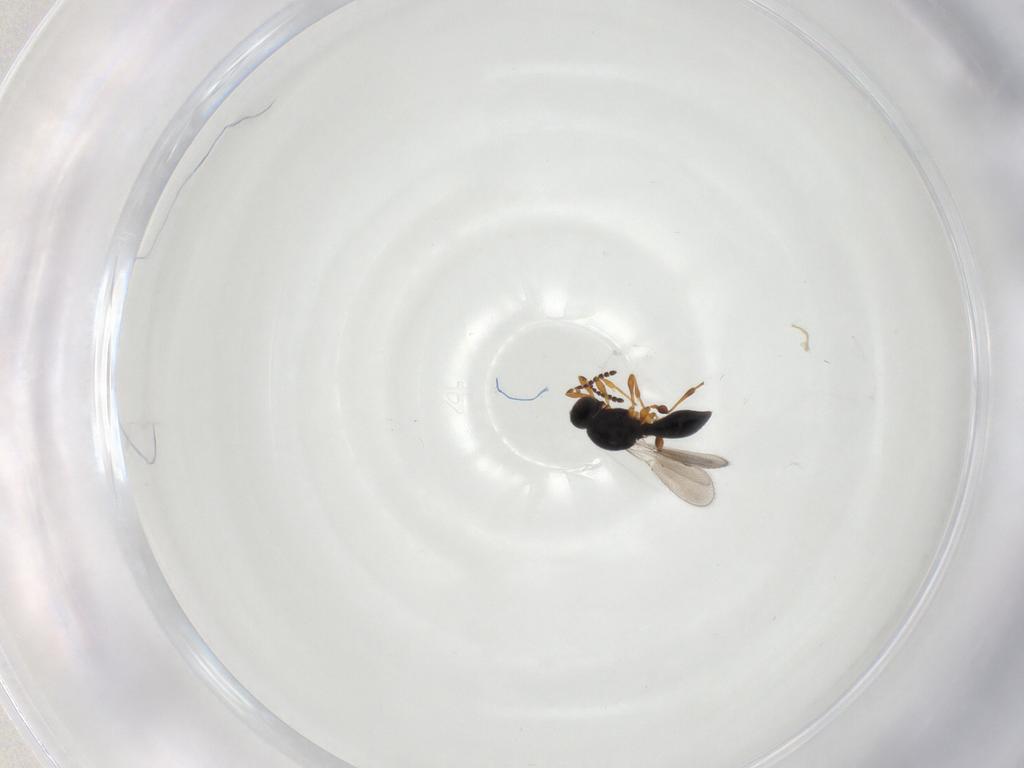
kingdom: Animalia
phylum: Arthropoda
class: Insecta
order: Hymenoptera
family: Platygastridae
